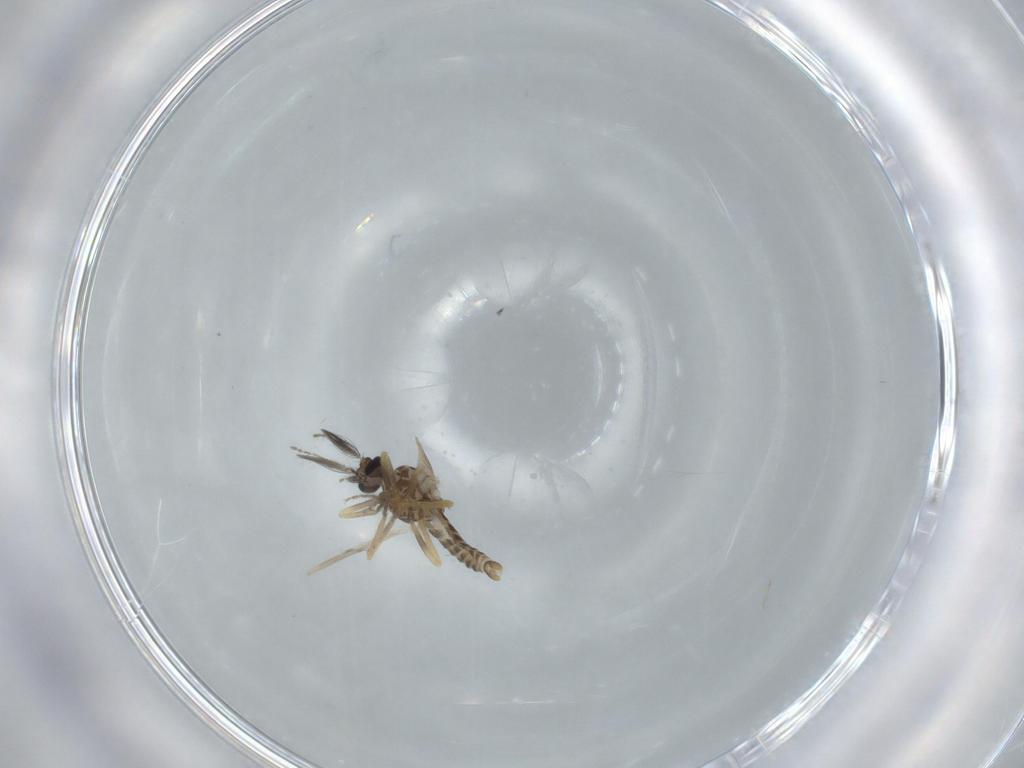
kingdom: Animalia
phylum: Arthropoda
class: Insecta
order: Diptera
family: Ceratopogonidae
